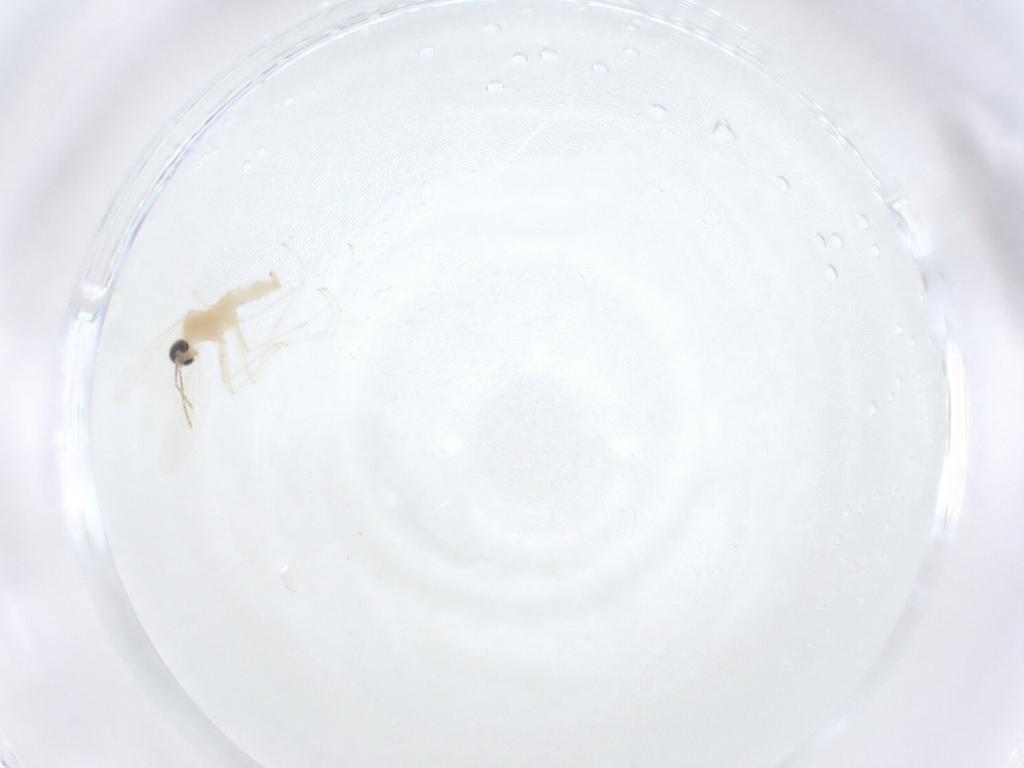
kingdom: Animalia
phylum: Arthropoda
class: Insecta
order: Diptera
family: Cecidomyiidae
